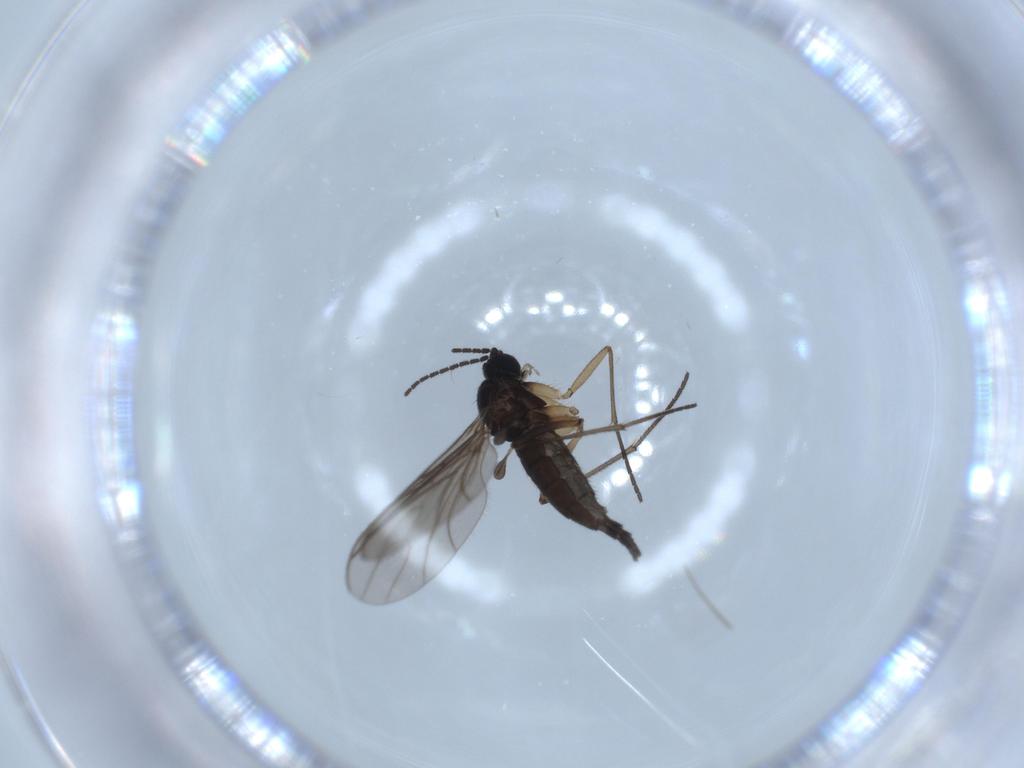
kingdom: Animalia
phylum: Arthropoda
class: Insecta
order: Diptera
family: Sciaridae
